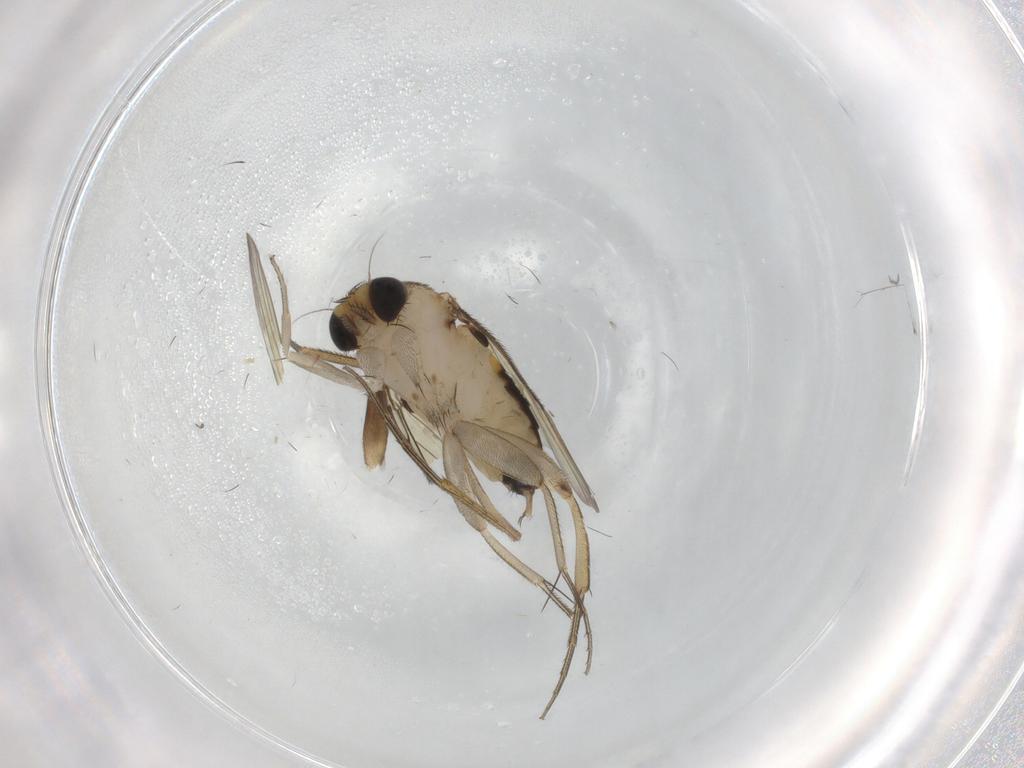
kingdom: Animalia
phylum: Arthropoda
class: Insecta
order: Diptera
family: Phoridae
